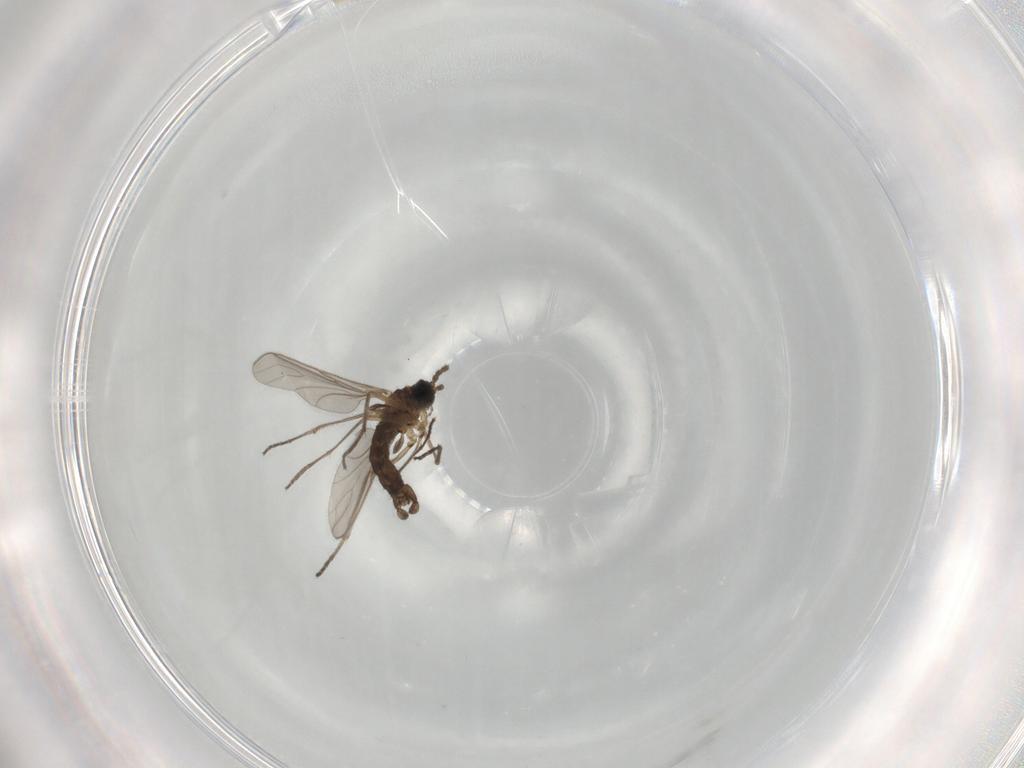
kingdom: Animalia
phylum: Arthropoda
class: Insecta
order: Diptera
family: Sciaridae
